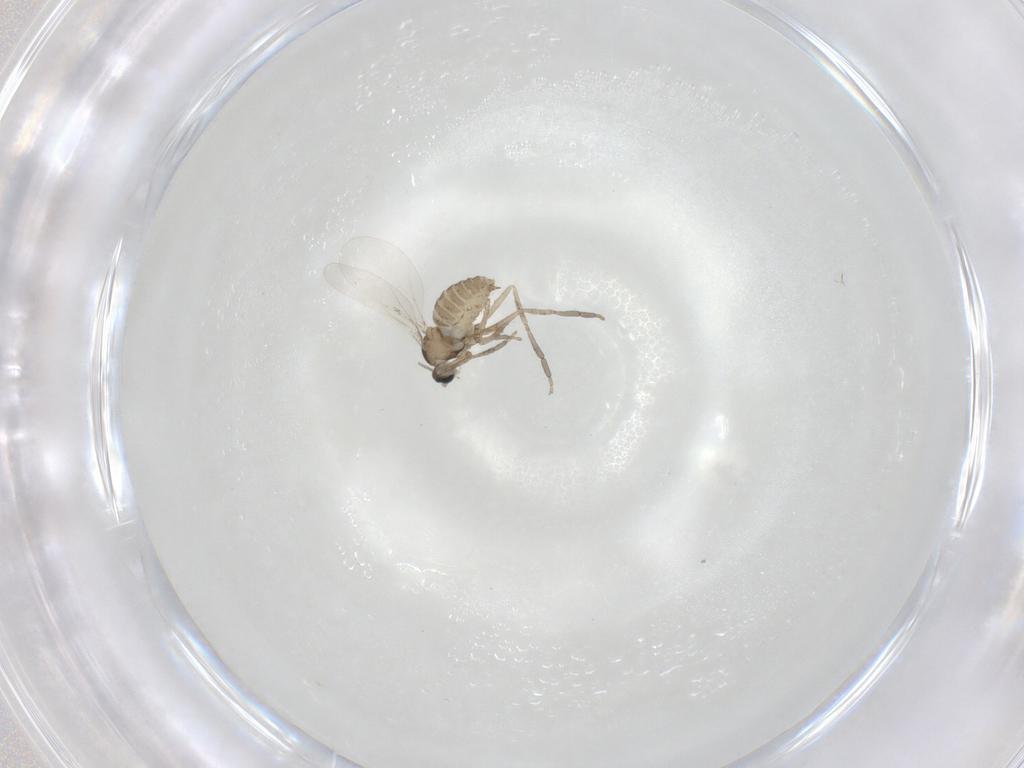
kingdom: Animalia
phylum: Arthropoda
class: Insecta
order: Diptera
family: Cecidomyiidae
